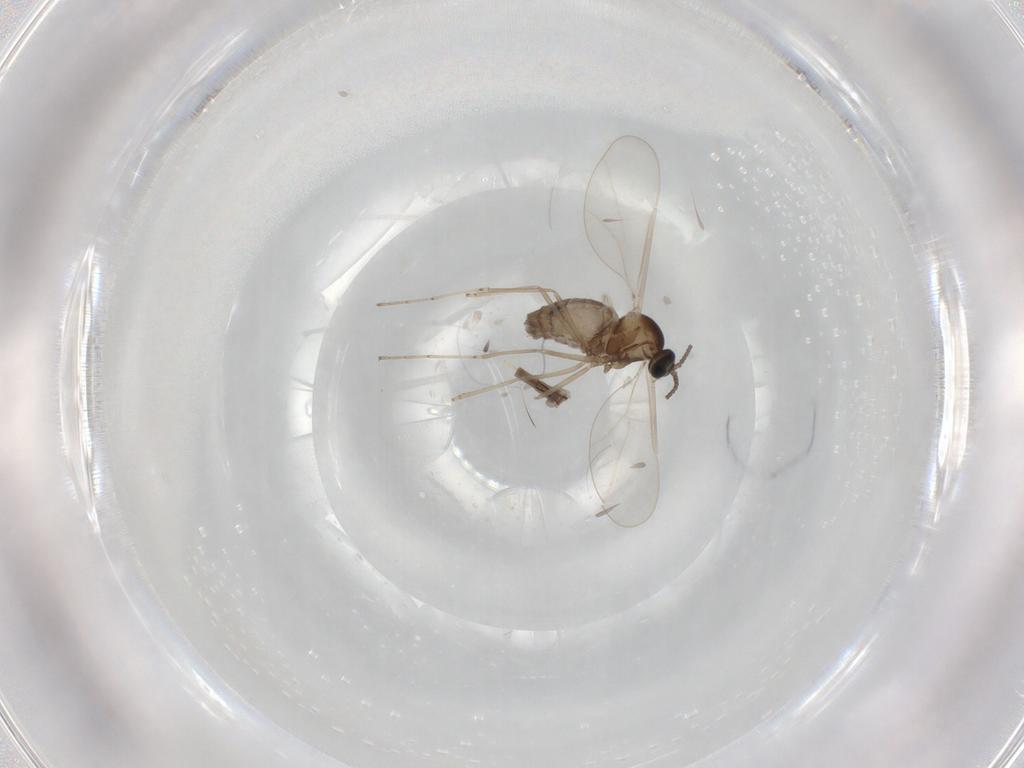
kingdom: Animalia
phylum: Arthropoda
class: Insecta
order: Diptera
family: Cecidomyiidae
